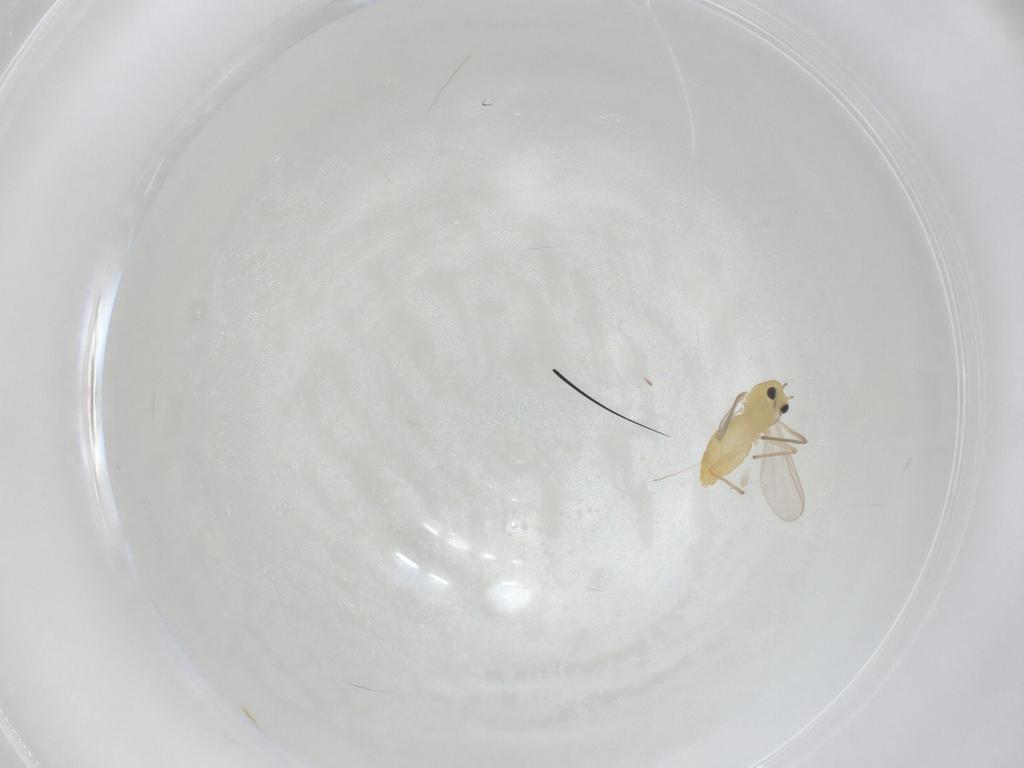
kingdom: Animalia
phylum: Arthropoda
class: Insecta
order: Diptera
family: Chironomidae
